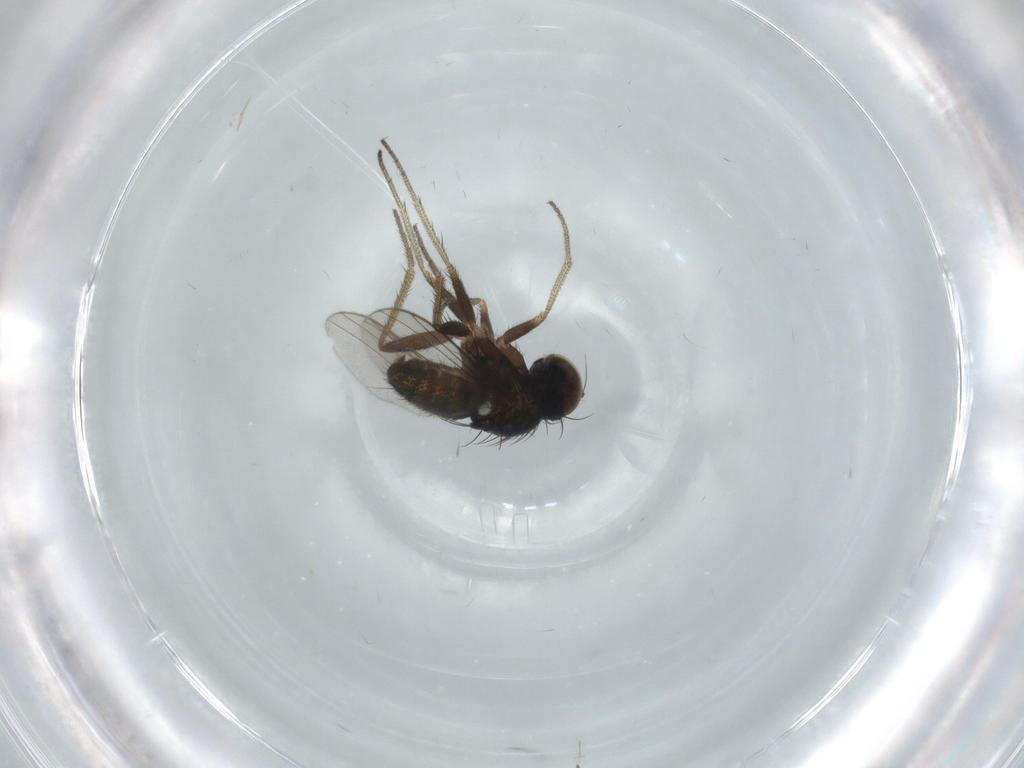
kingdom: Animalia
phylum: Arthropoda
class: Insecta
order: Diptera
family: Dolichopodidae
